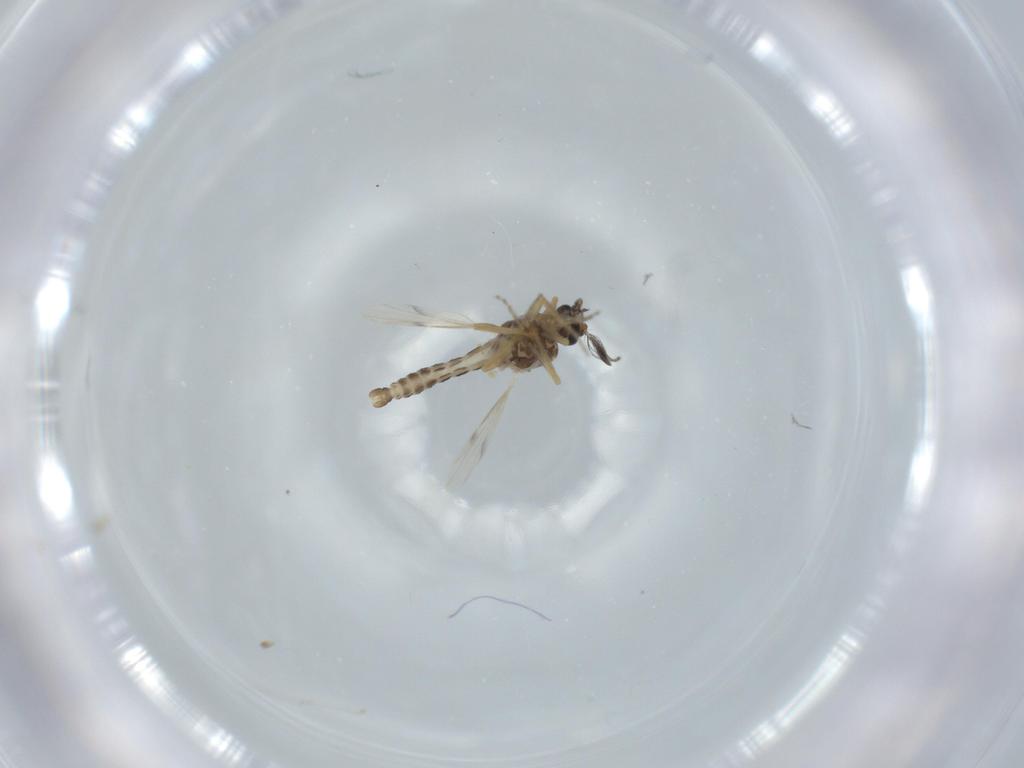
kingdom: Animalia
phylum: Arthropoda
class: Insecta
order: Diptera
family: Ceratopogonidae
